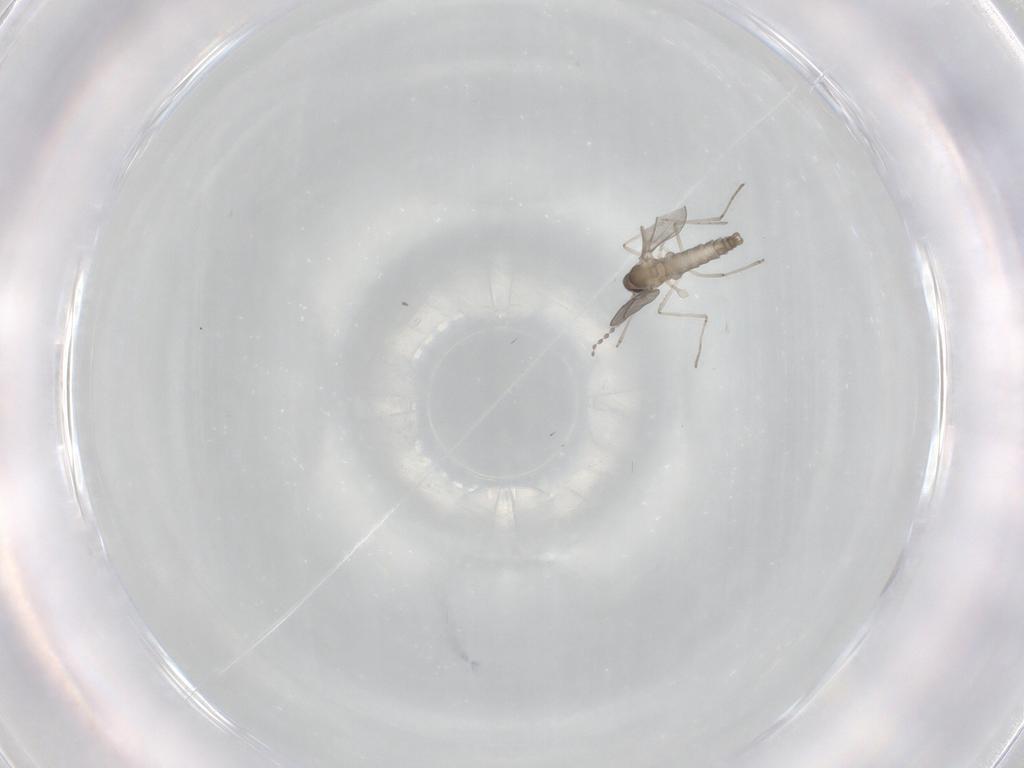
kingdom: Animalia
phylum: Arthropoda
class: Insecta
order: Diptera
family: Cecidomyiidae
